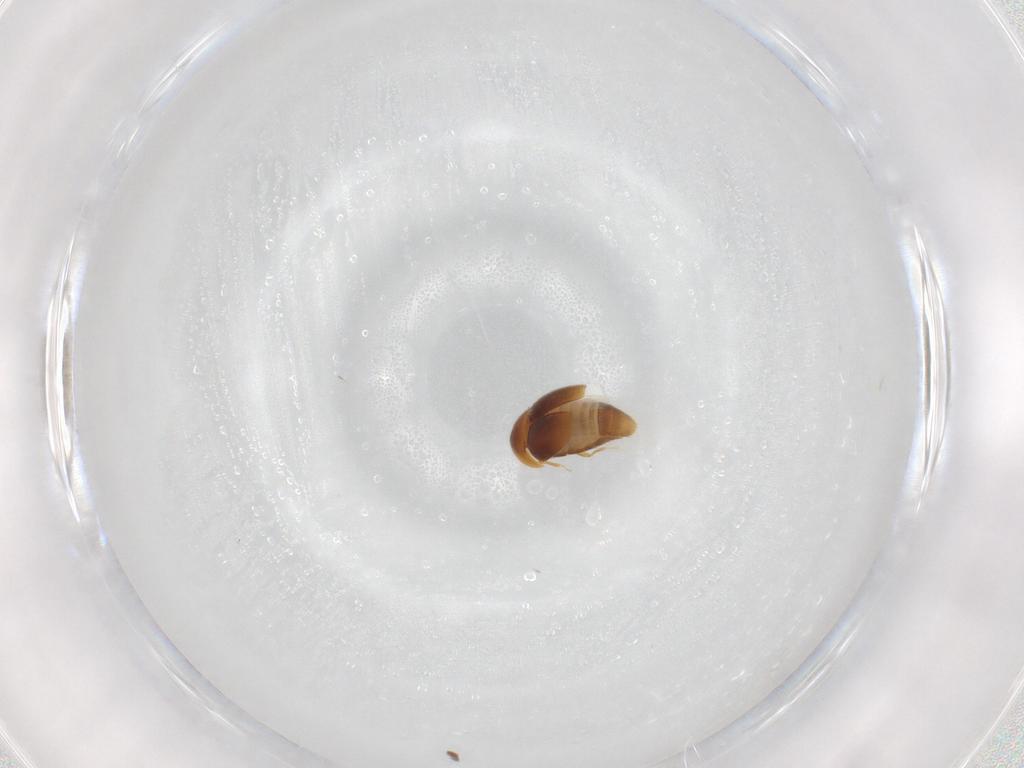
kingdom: Animalia
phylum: Arthropoda
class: Insecta
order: Coleoptera
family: Corylophidae
